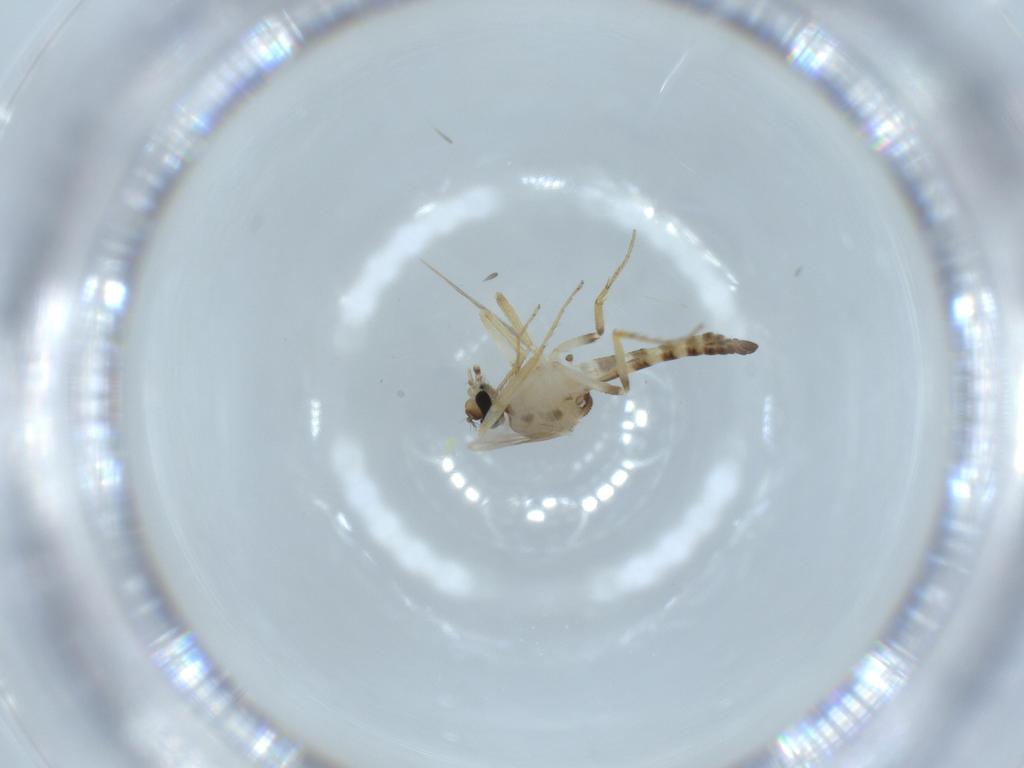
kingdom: Animalia
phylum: Arthropoda
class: Insecta
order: Diptera
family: Ceratopogonidae
